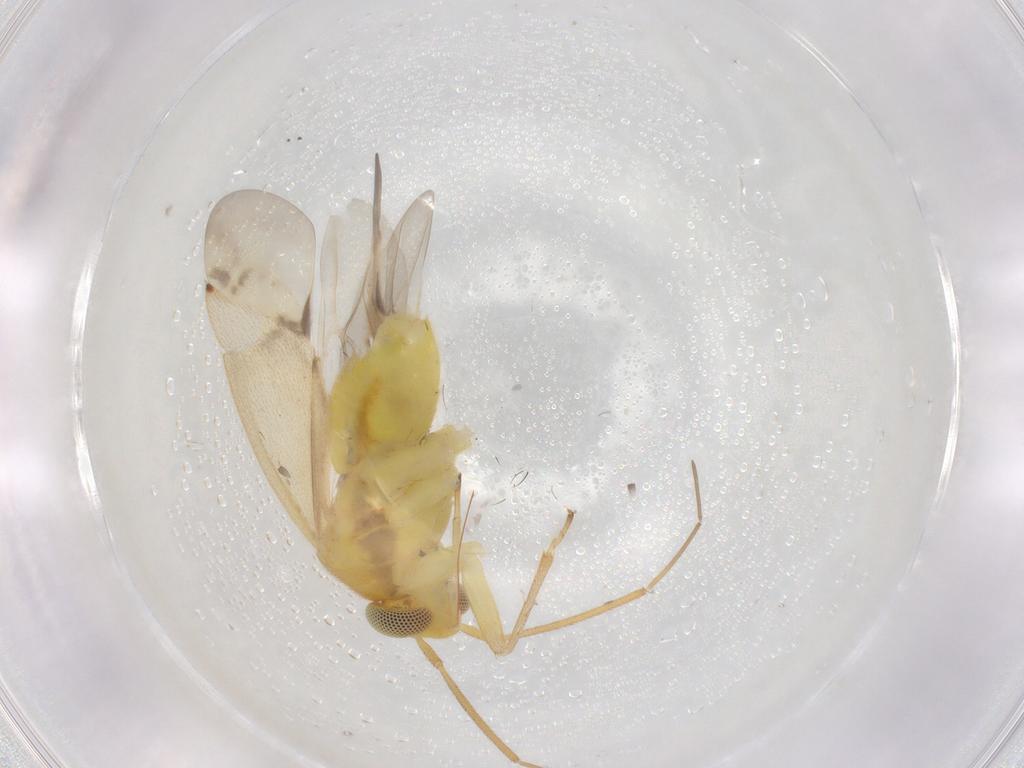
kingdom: Animalia
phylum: Arthropoda
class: Insecta
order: Hemiptera
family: Miridae
